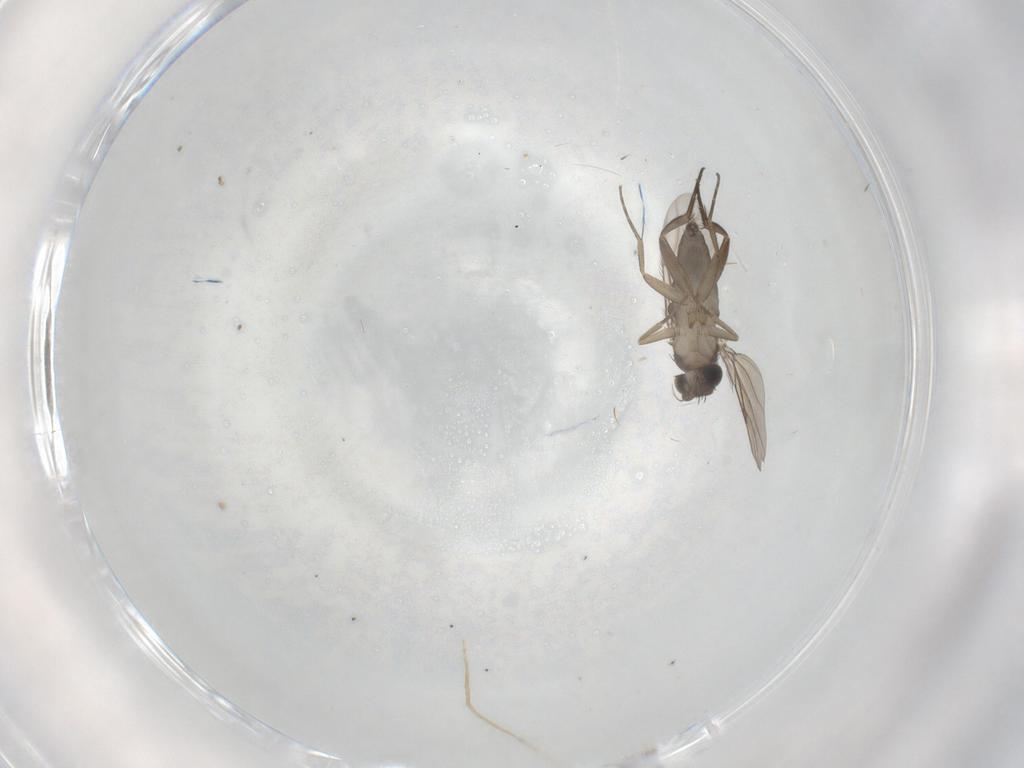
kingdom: Animalia
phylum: Arthropoda
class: Insecta
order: Diptera
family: Phoridae
